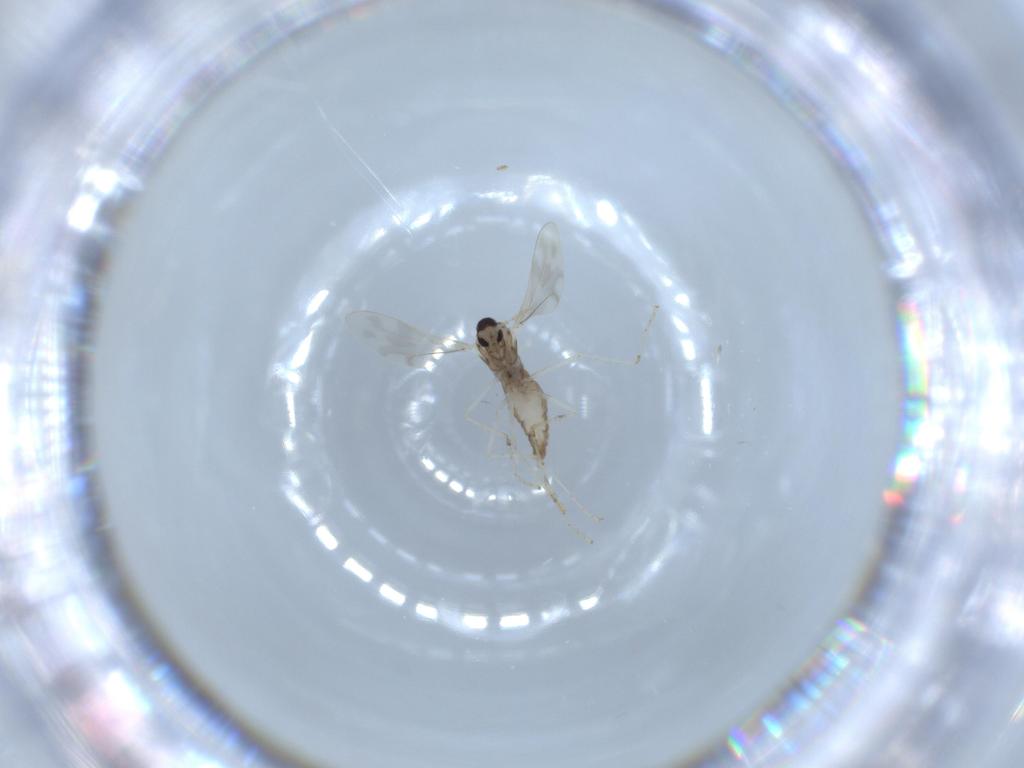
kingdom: Animalia
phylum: Arthropoda
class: Insecta
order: Diptera
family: Cecidomyiidae
